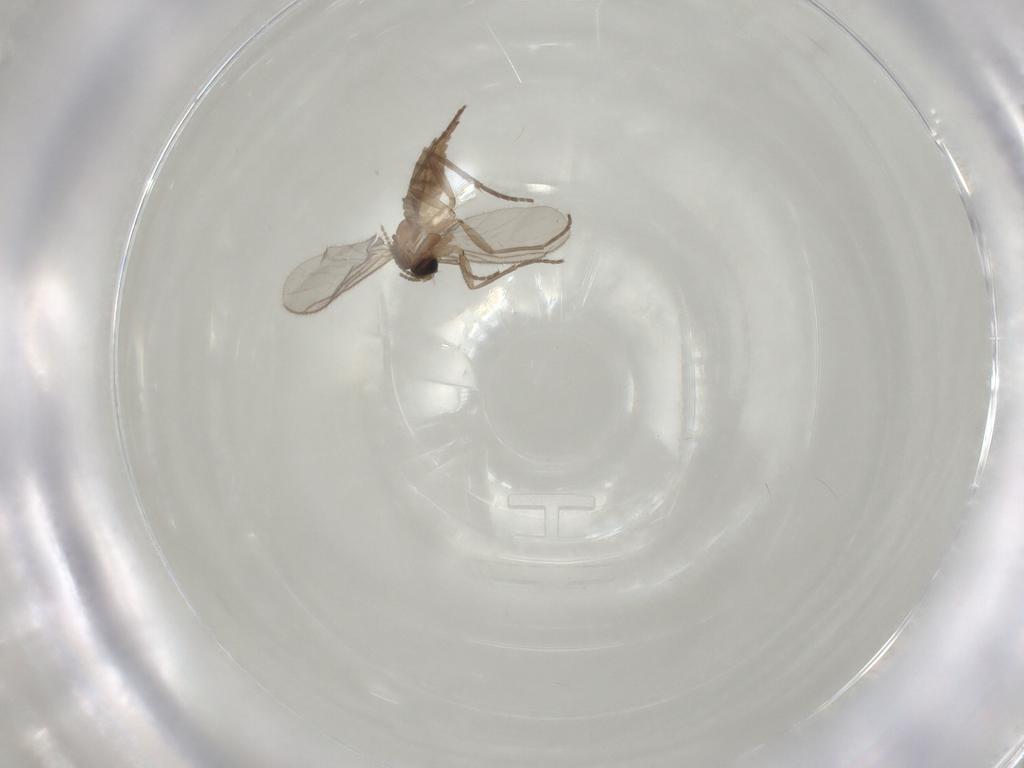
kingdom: Animalia
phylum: Arthropoda
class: Insecta
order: Diptera
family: Sciaridae
